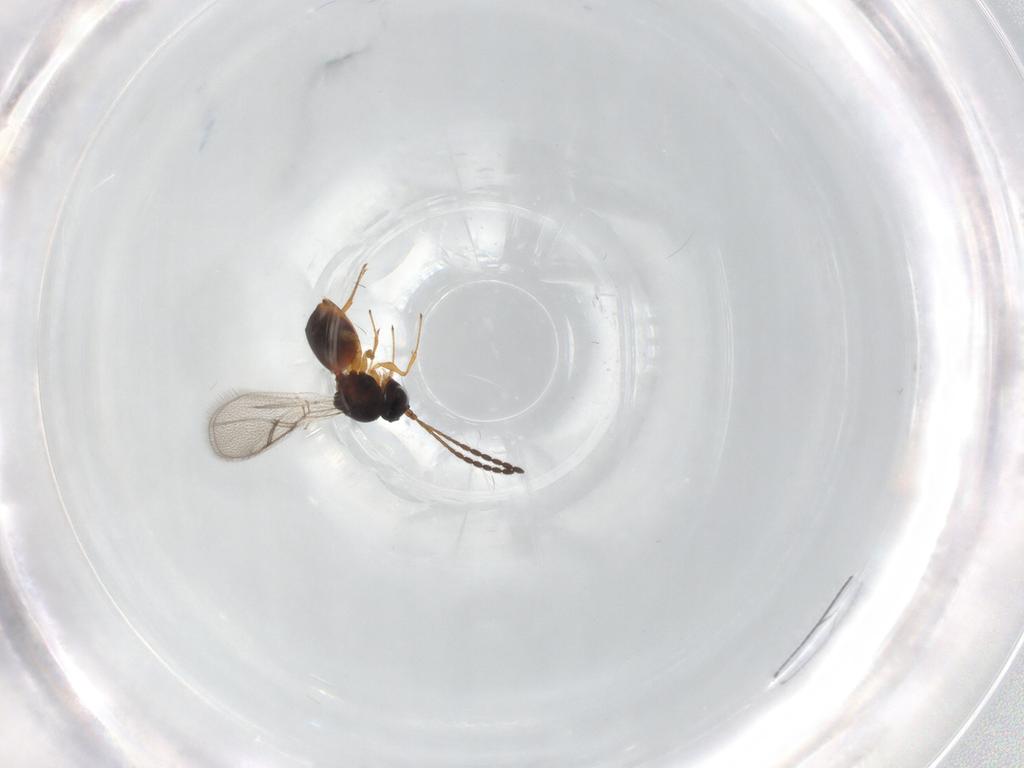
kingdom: Animalia
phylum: Arthropoda
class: Insecta
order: Hymenoptera
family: Figitidae
